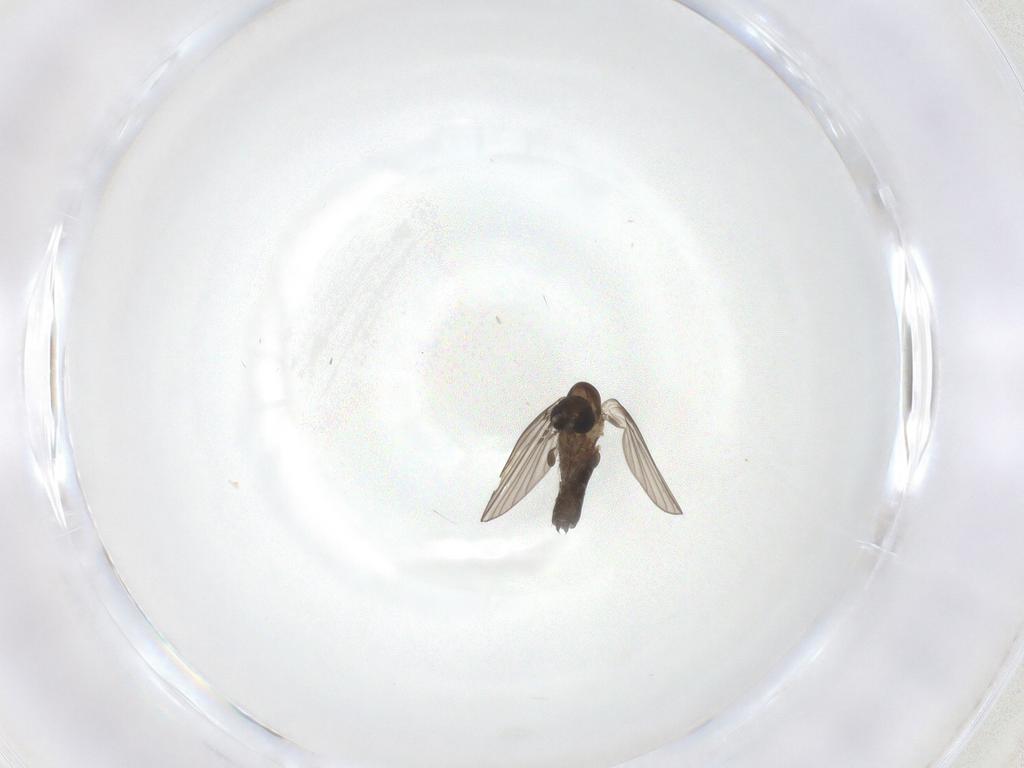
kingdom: Animalia
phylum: Arthropoda
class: Insecta
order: Diptera
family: Psychodidae
